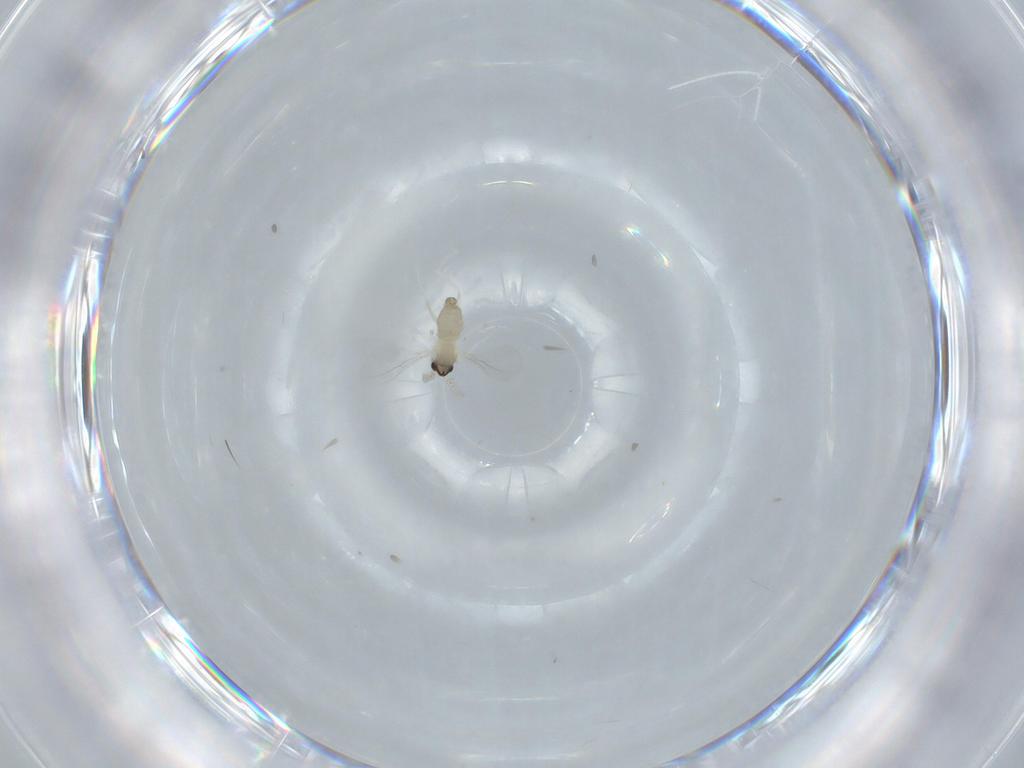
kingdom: Animalia
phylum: Arthropoda
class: Insecta
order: Diptera
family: Cecidomyiidae
